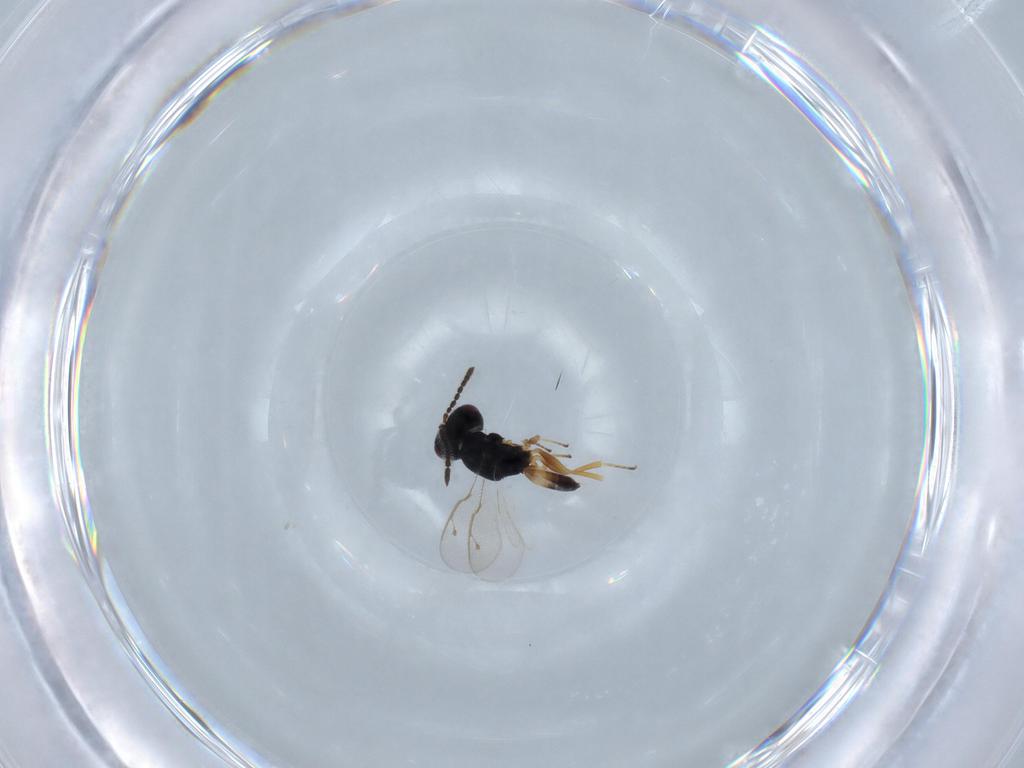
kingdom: Animalia
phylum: Arthropoda
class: Insecta
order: Hymenoptera
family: Pteromalidae
